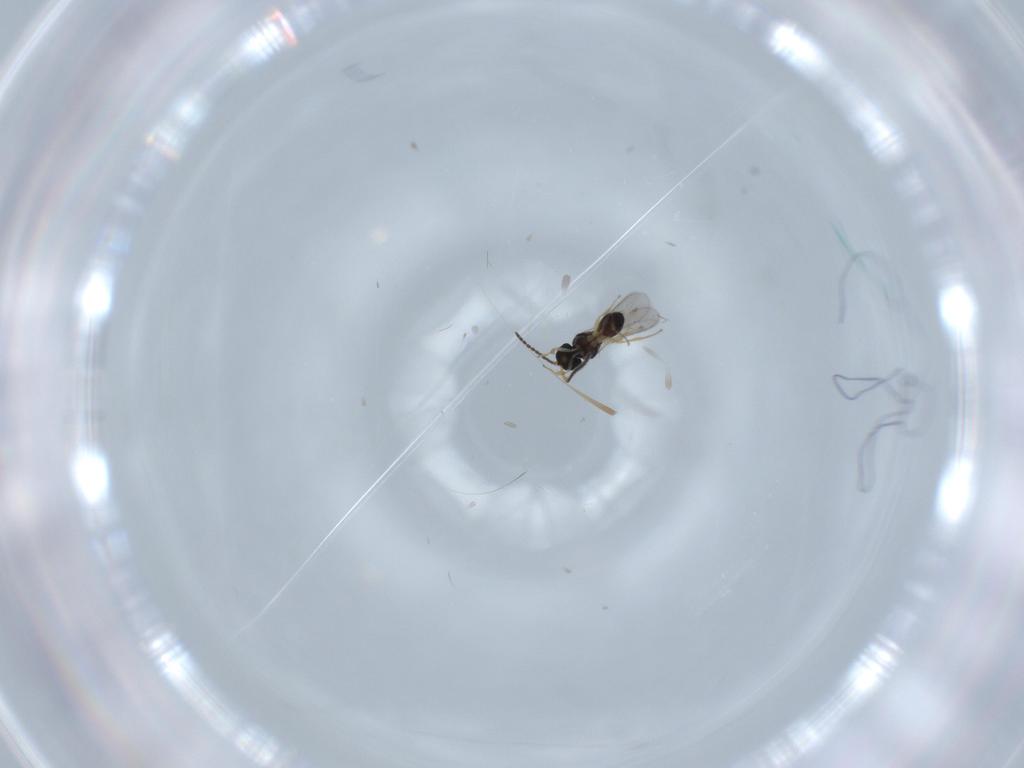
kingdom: Animalia
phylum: Arthropoda
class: Insecta
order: Hymenoptera
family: Scelionidae
